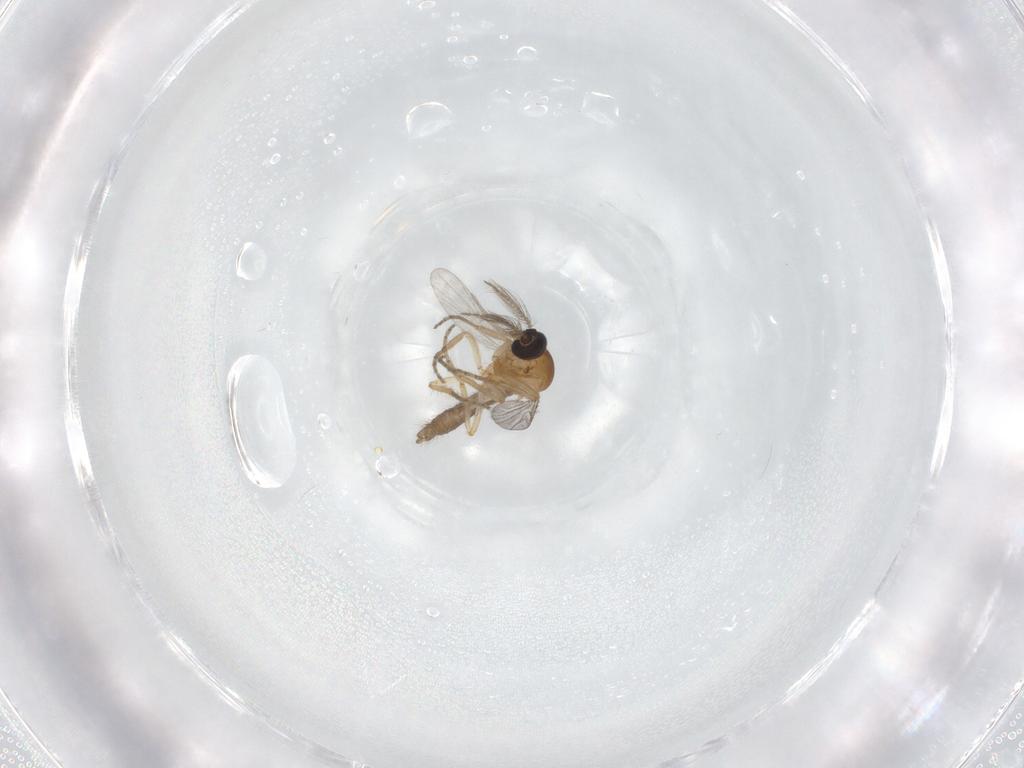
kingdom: Animalia
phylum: Arthropoda
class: Insecta
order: Diptera
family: Ceratopogonidae
